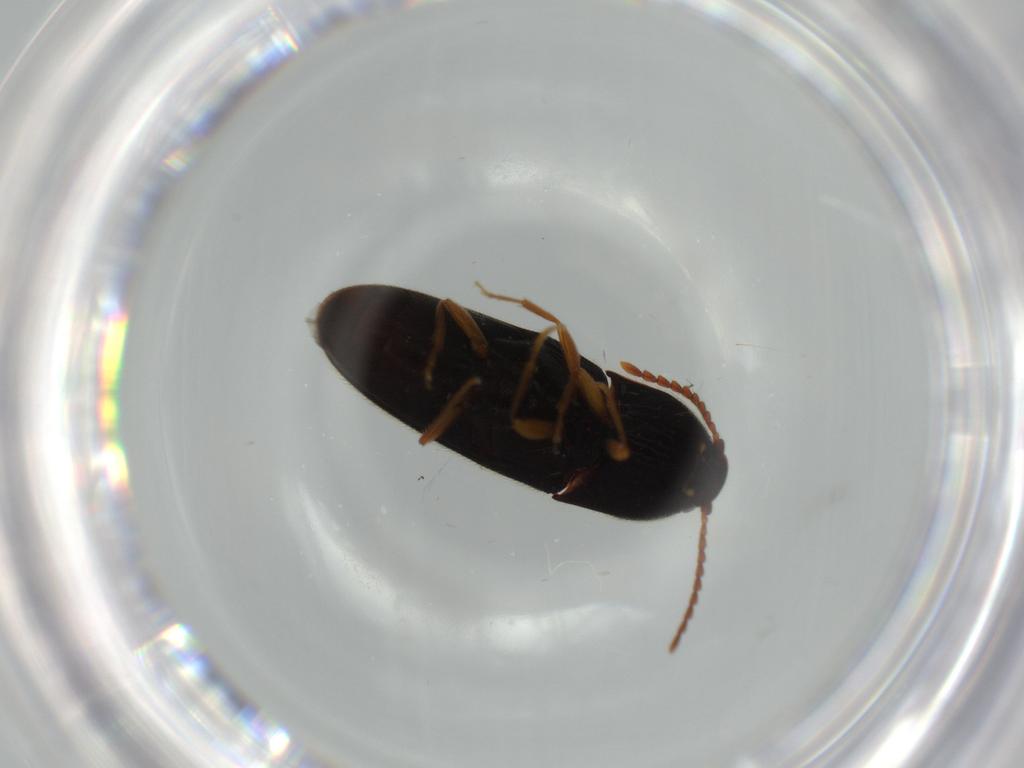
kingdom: Animalia
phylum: Arthropoda
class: Insecta
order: Coleoptera
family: Elateridae
